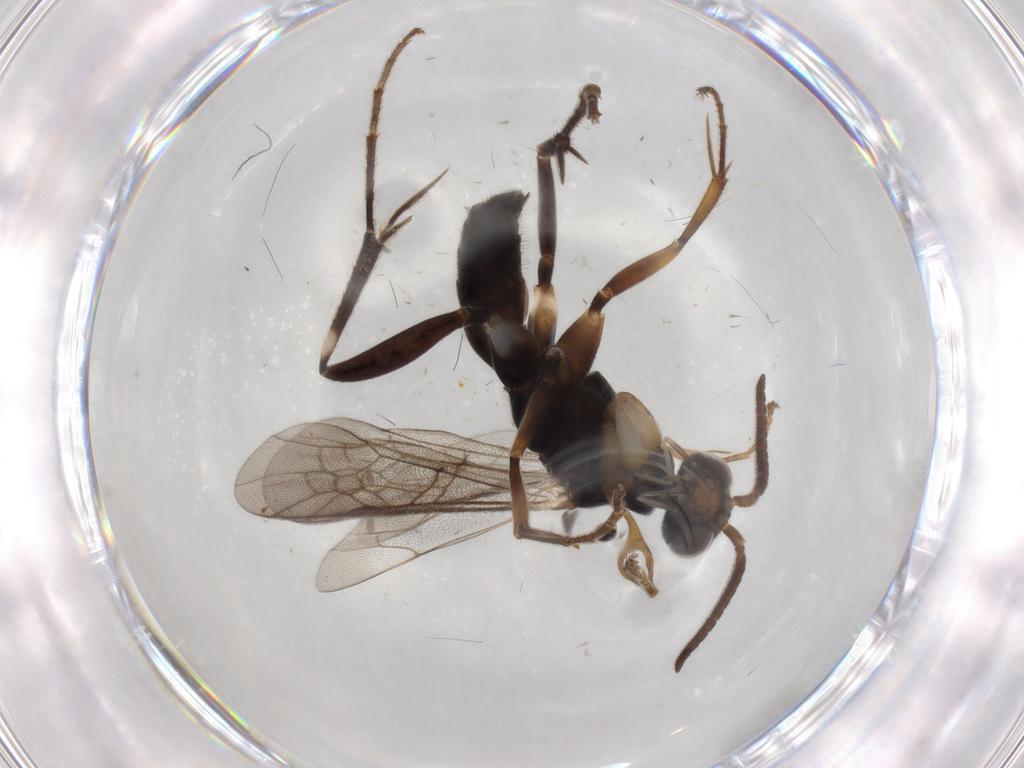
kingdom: Animalia
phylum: Arthropoda
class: Insecta
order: Hymenoptera
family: Pompilidae
